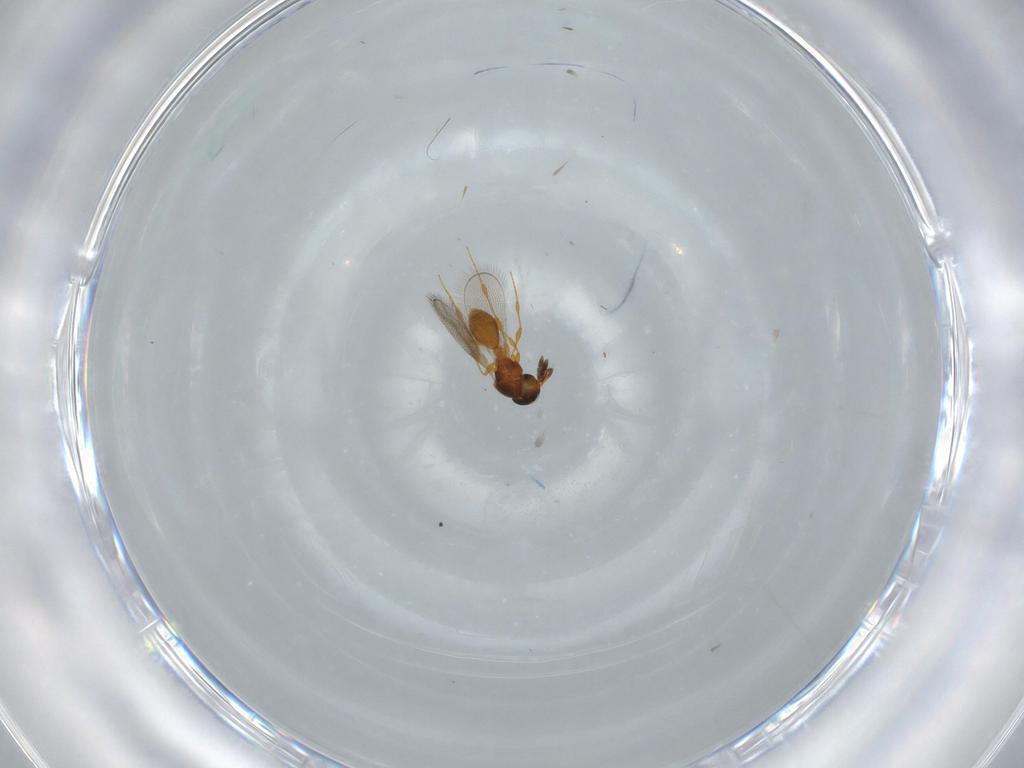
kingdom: Animalia
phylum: Arthropoda
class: Insecta
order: Hymenoptera
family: Platygastridae
